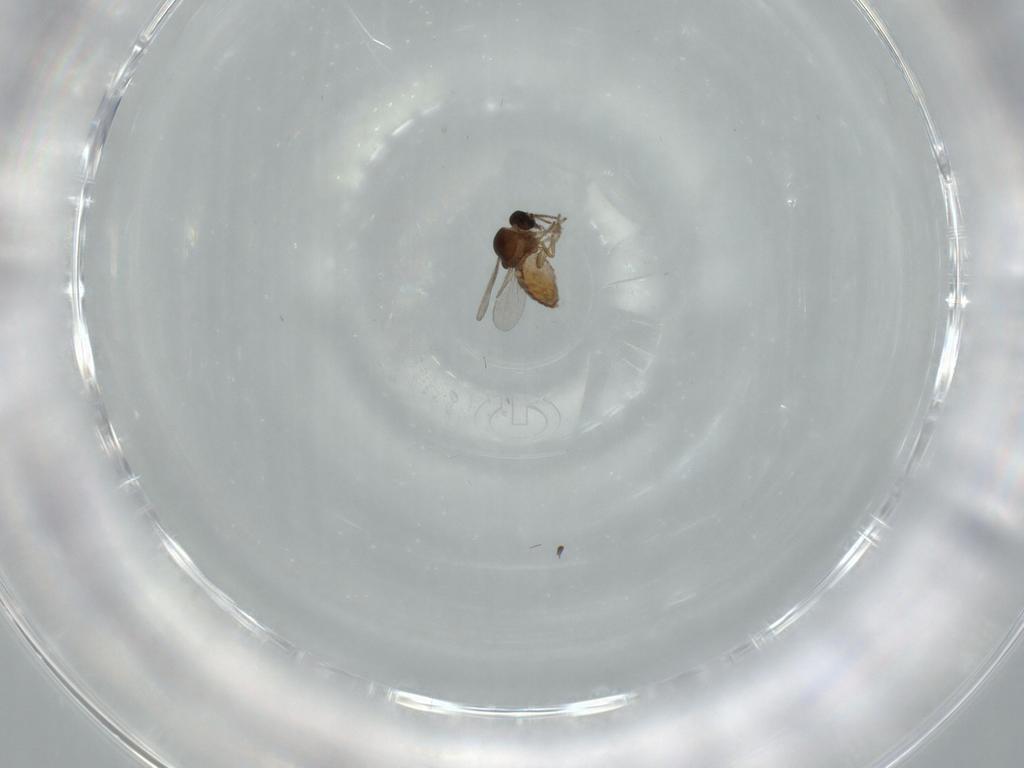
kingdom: Animalia
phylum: Arthropoda
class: Insecta
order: Diptera
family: Ceratopogonidae
